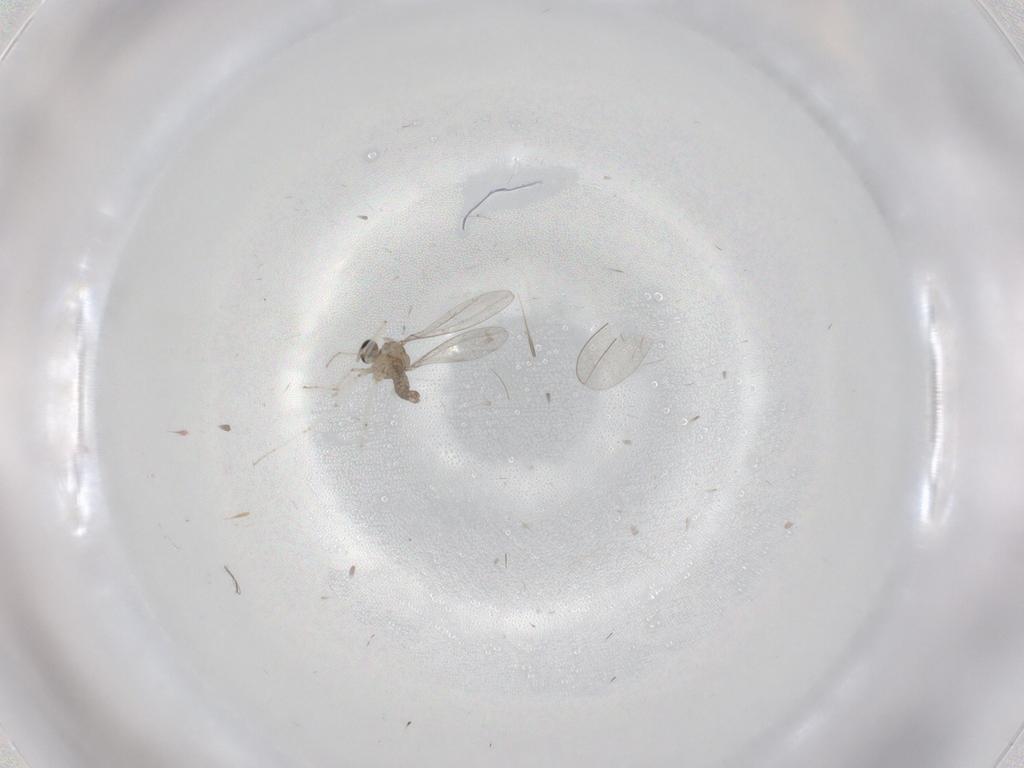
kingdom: Animalia
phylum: Arthropoda
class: Insecta
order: Diptera
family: Cecidomyiidae
